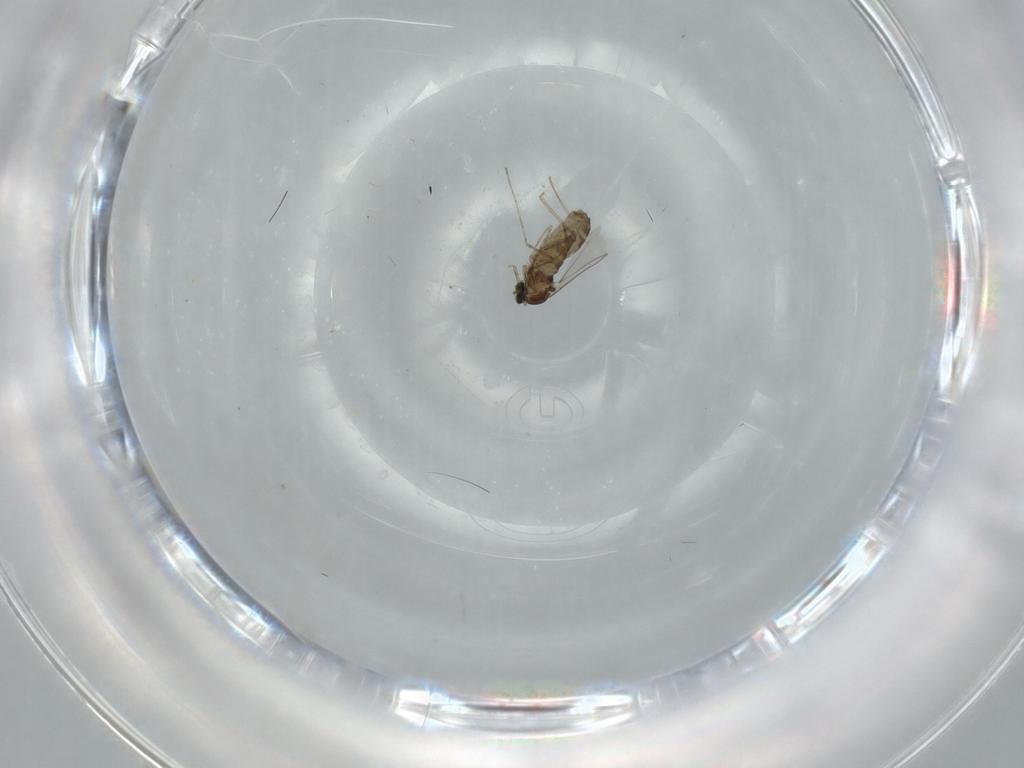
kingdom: Animalia
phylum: Arthropoda
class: Insecta
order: Diptera
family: Cecidomyiidae
